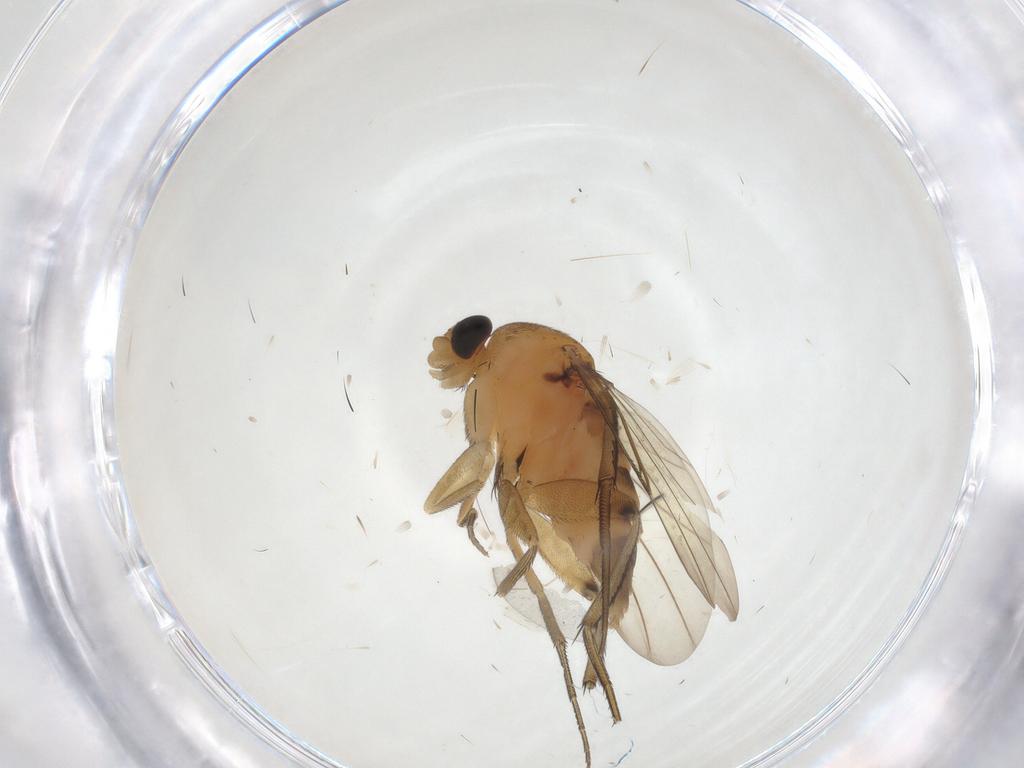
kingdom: Animalia
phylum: Arthropoda
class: Insecta
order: Diptera
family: Cecidomyiidae
